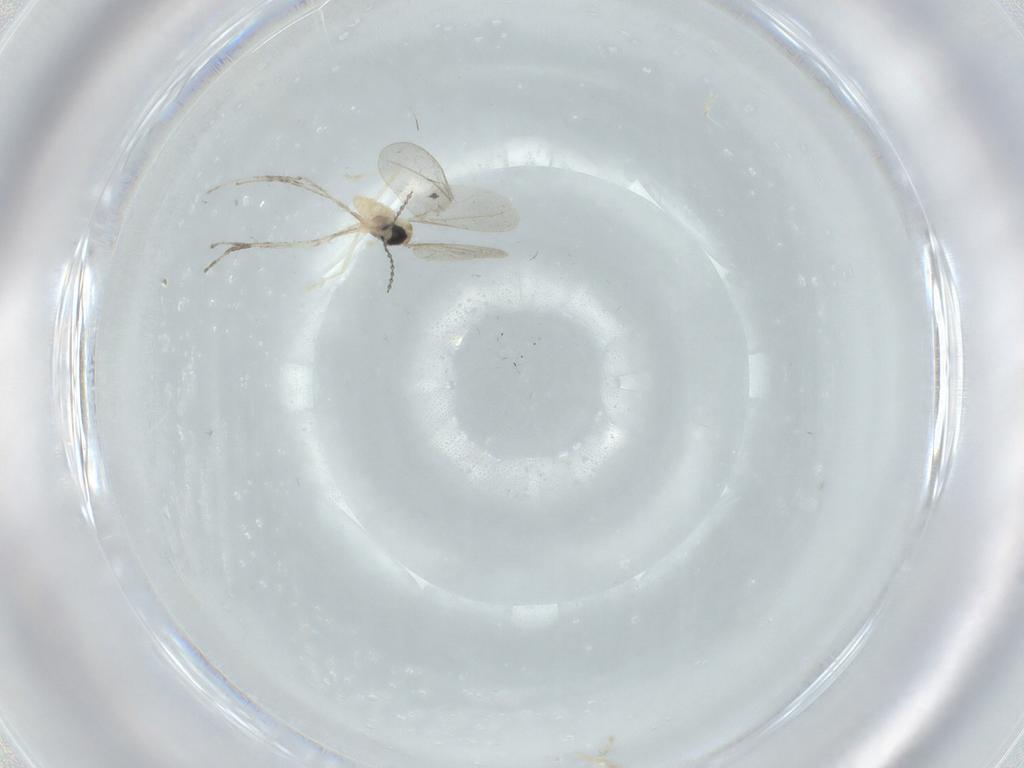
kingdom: Animalia
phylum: Arthropoda
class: Insecta
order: Diptera
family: Cecidomyiidae
